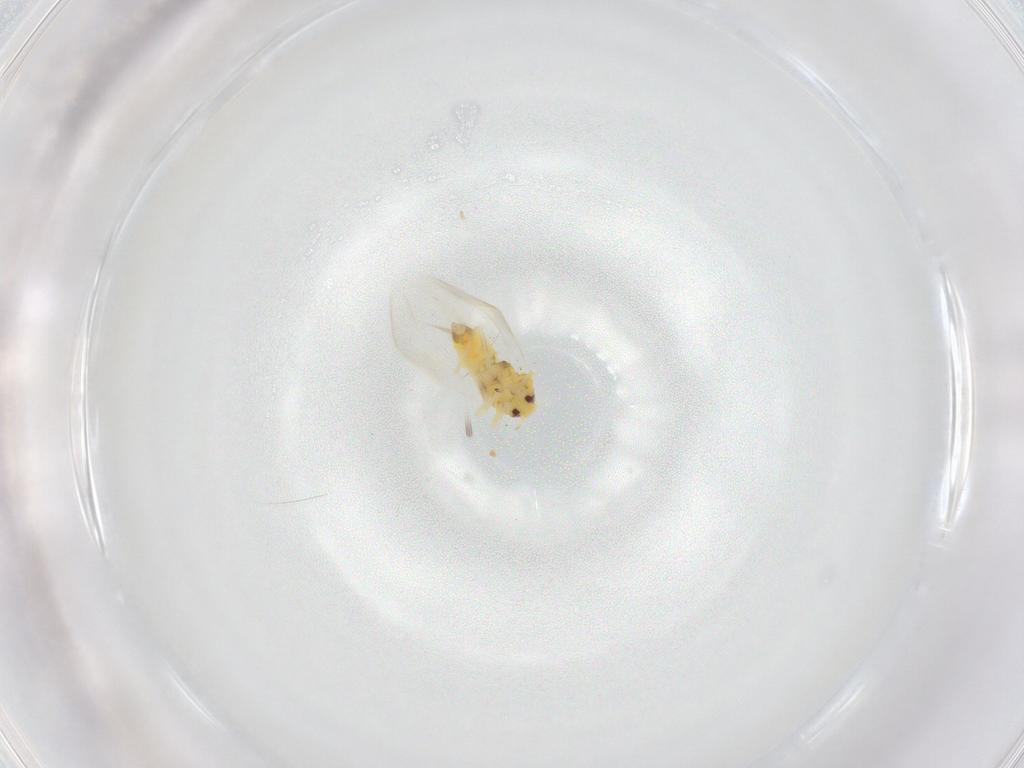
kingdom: Animalia
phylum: Arthropoda
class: Insecta
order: Hemiptera
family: Aleyrodidae
